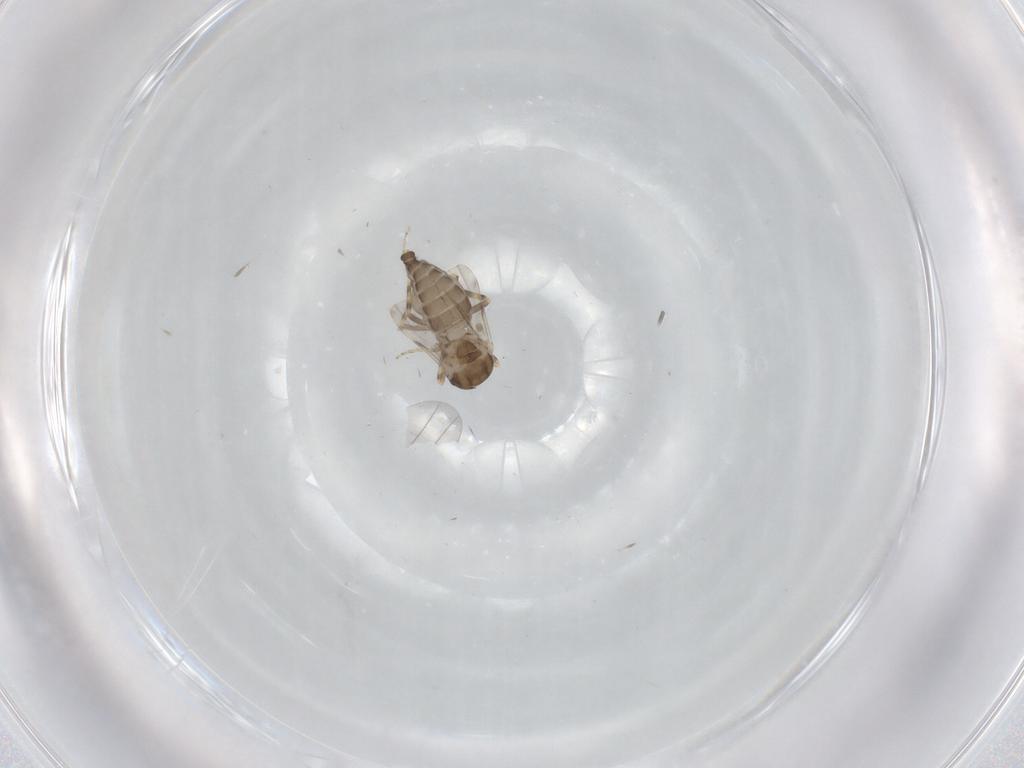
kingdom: Animalia
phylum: Arthropoda
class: Insecta
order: Diptera
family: Ceratopogonidae
